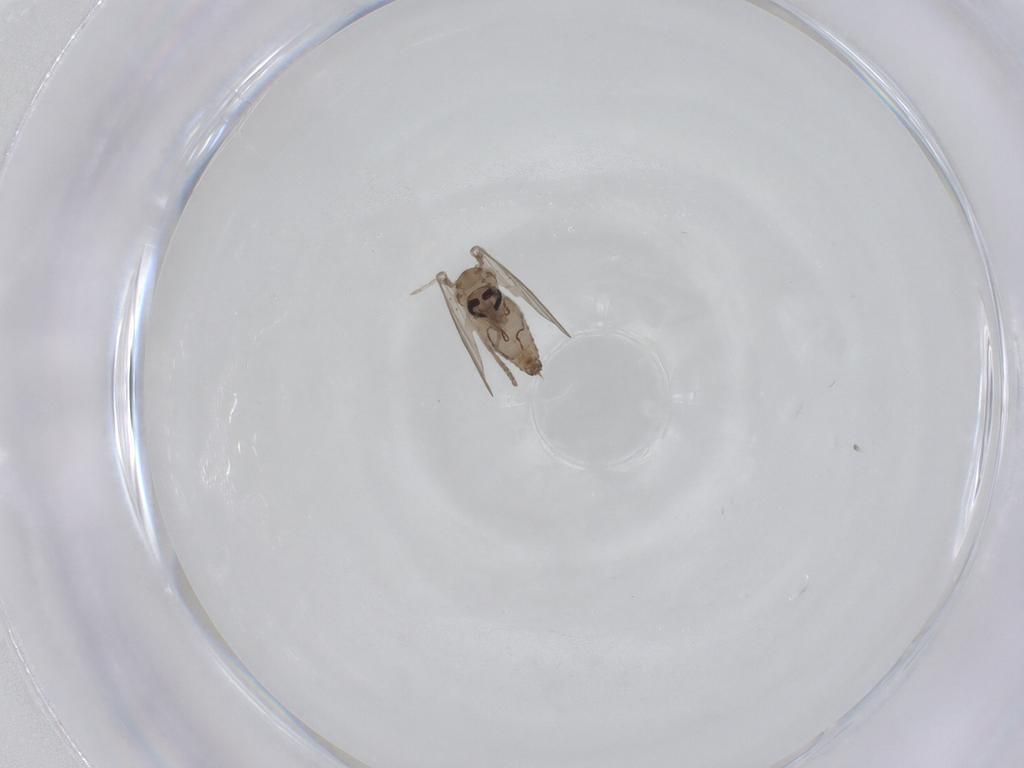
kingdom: Animalia
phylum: Arthropoda
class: Insecta
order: Diptera
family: Psychodidae
